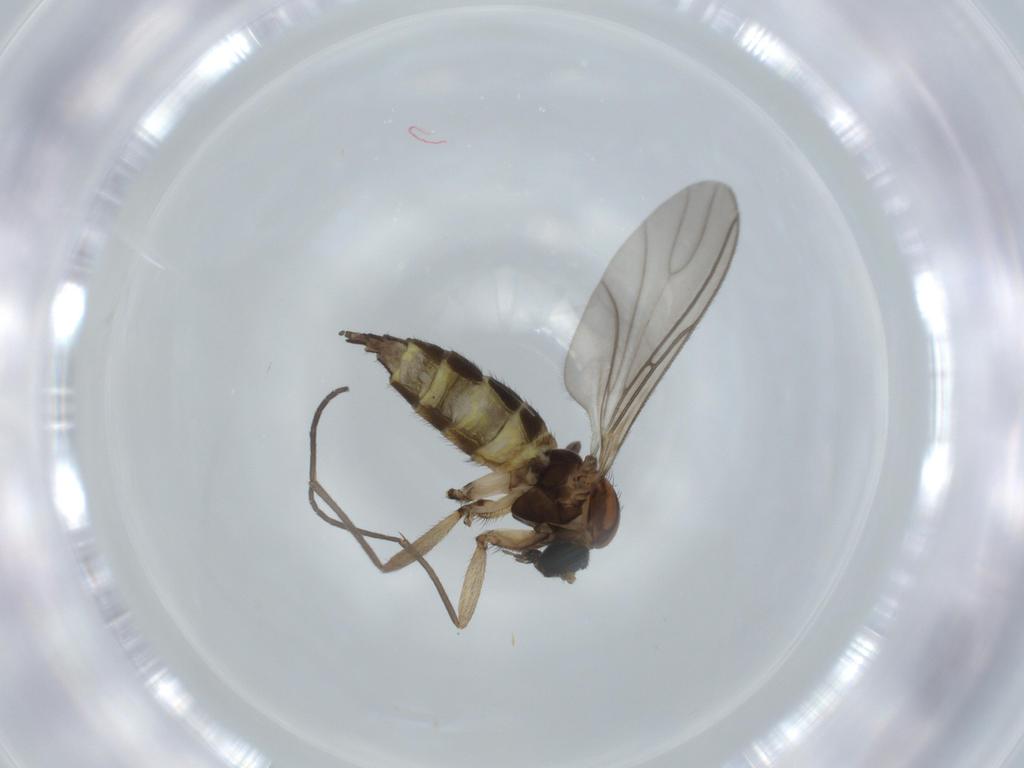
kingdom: Animalia
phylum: Arthropoda
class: Insecta
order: Diptera
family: Sciaridae
